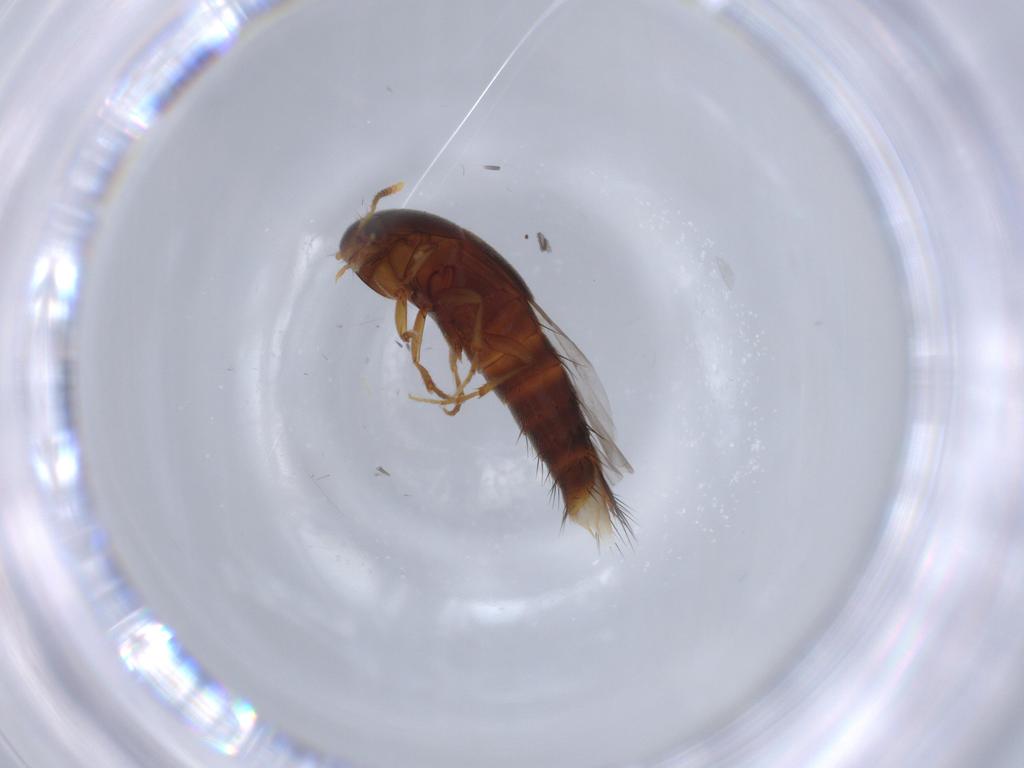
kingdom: Animalia
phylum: Arthropoda
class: Insecta
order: Coleoptera
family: Staphylinidae
